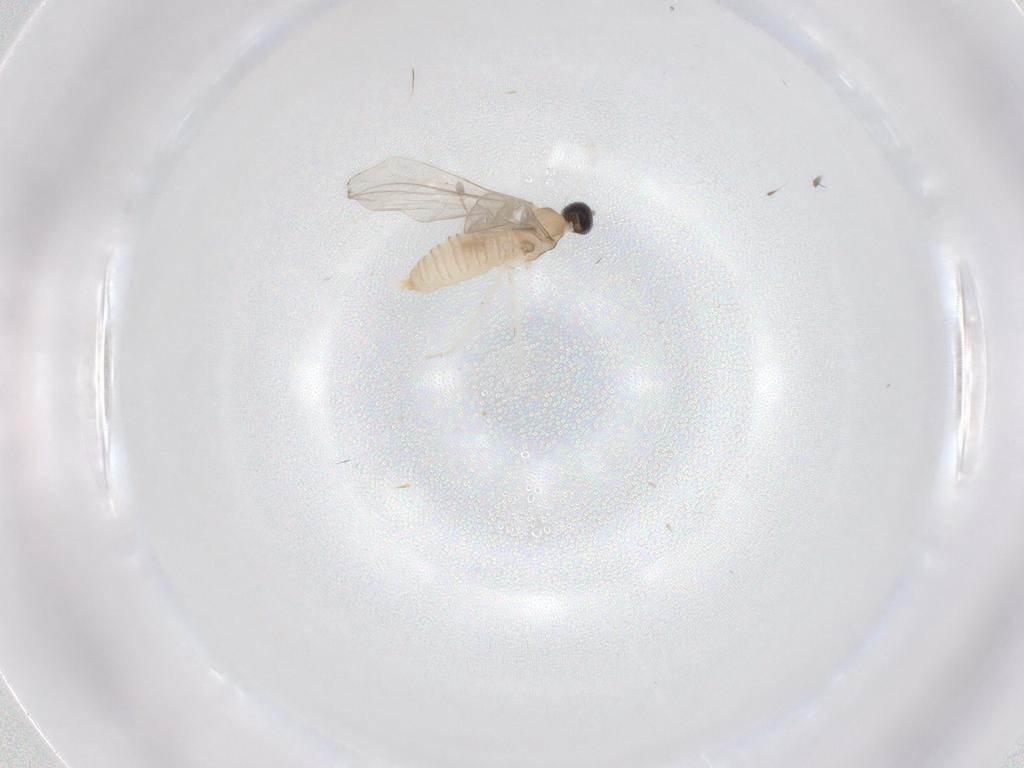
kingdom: Animalia
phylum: Arthropoda
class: Insecta
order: Diptera
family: Cecidomyiidae
